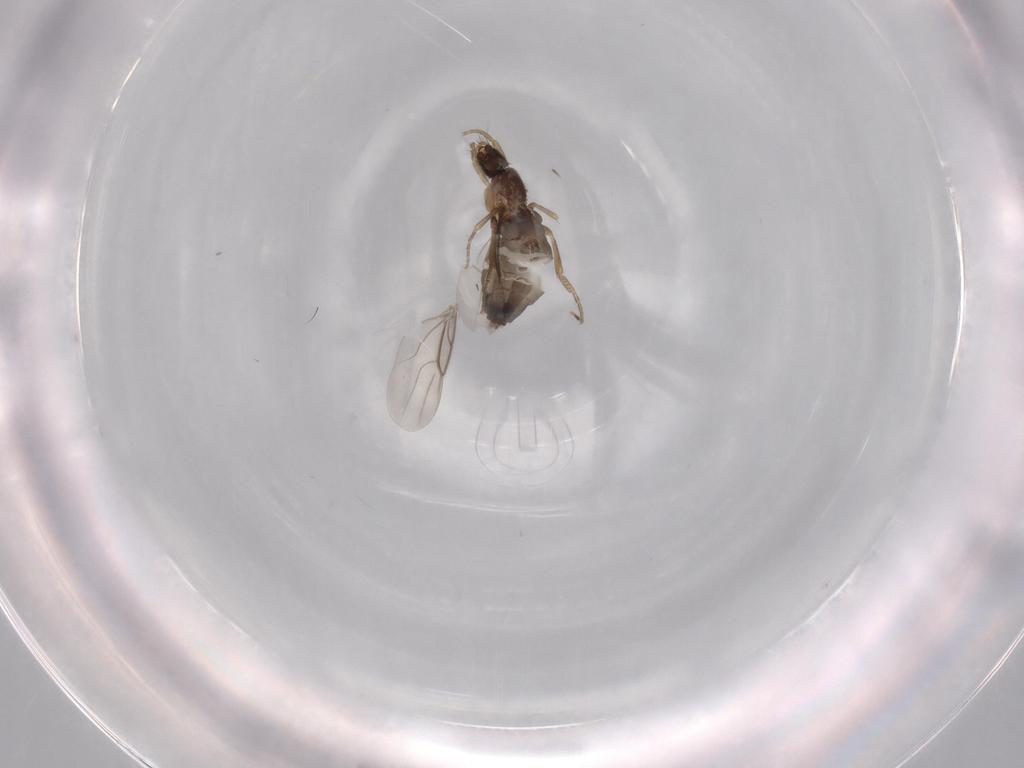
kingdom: Animalia
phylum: Arthropoda
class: Insecta
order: Diptera
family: Phoridae
